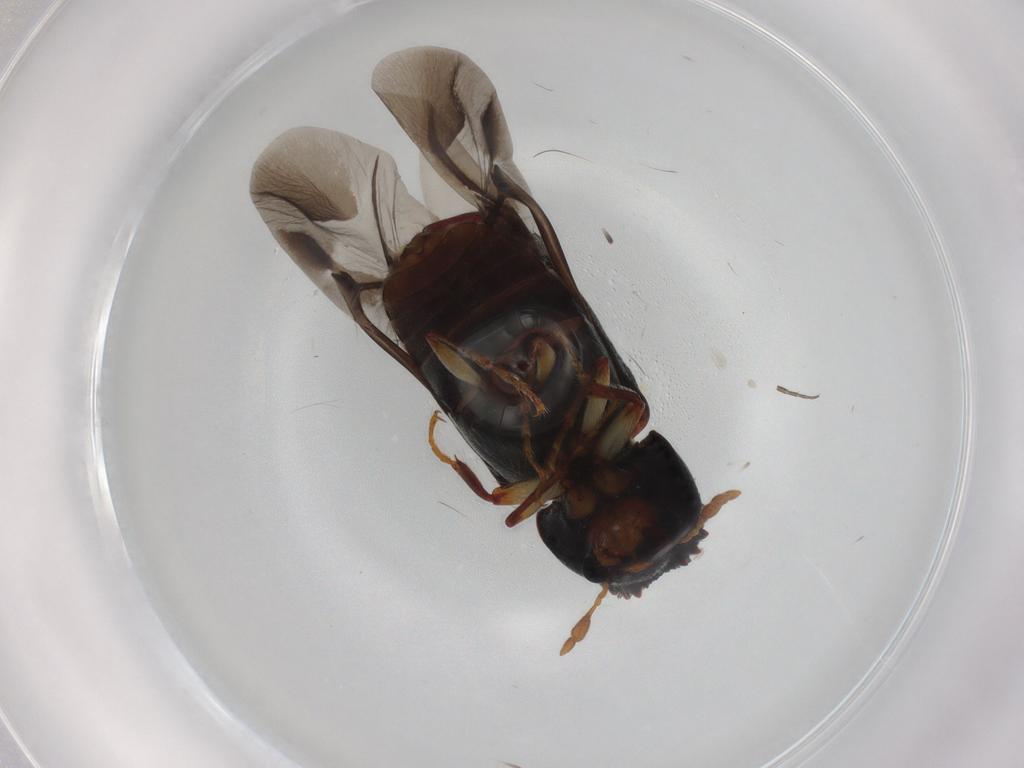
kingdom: Animalia
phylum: Arthropoda
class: Insecta
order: Coleoptera
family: Bostrichidae
